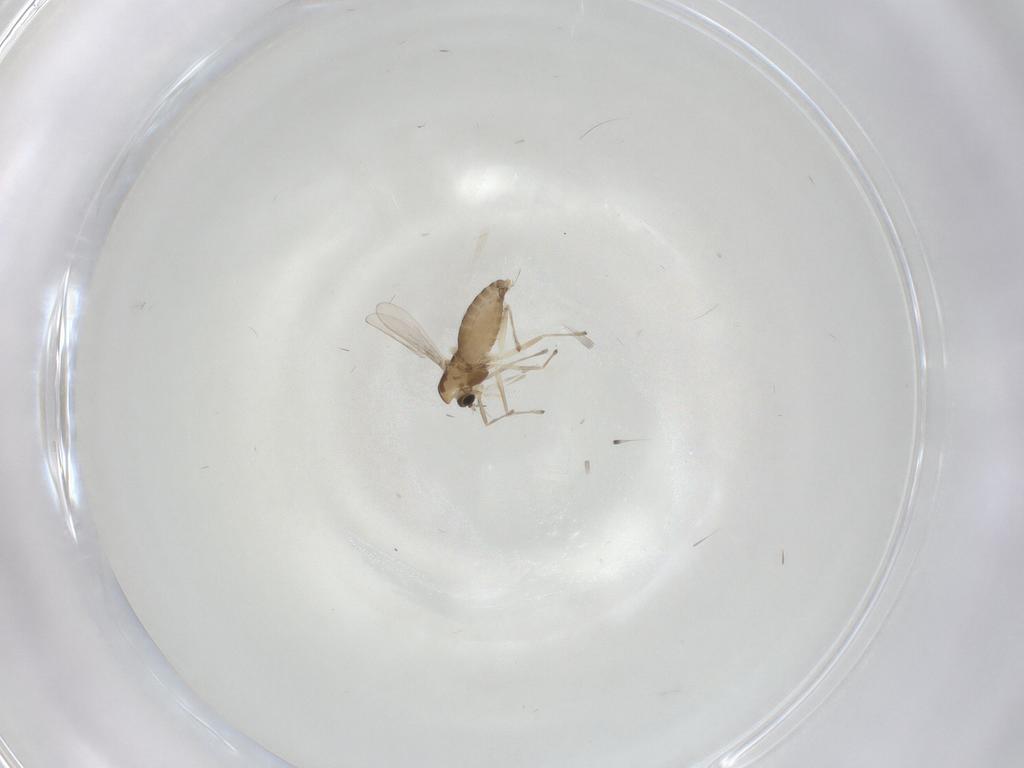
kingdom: Animalia
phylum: Arthropoda
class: Insecta
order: Diptera
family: Chironomidae
